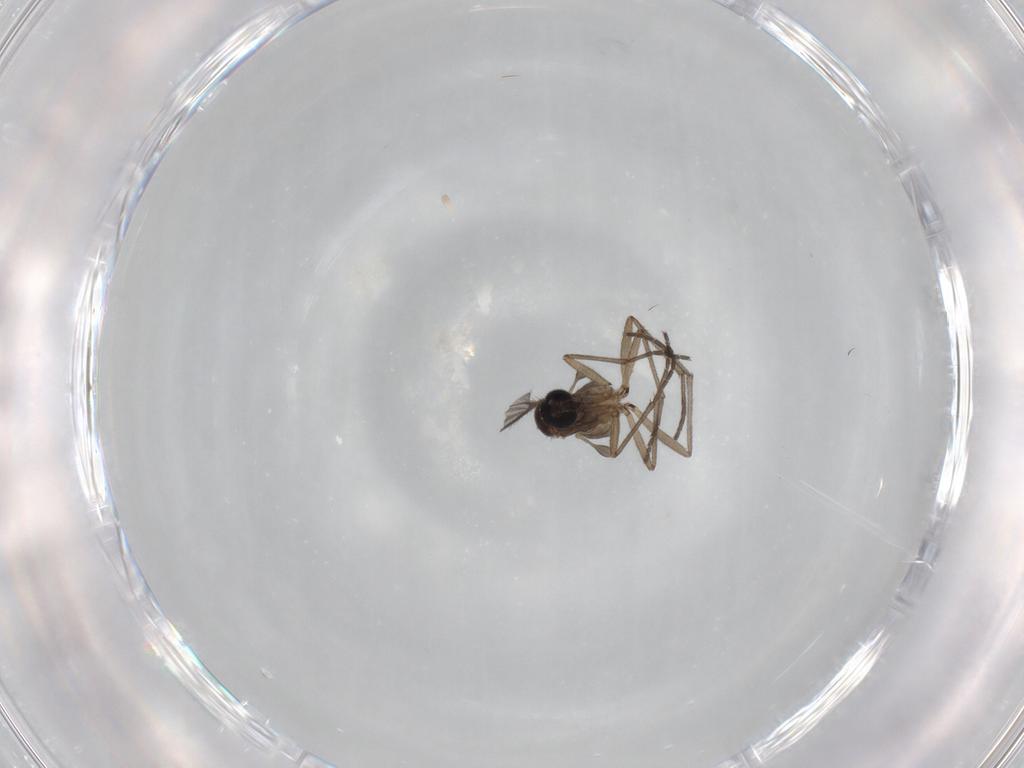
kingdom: Animalia
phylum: Arthropoda
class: Insecta
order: Diptera
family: Sciaridae
